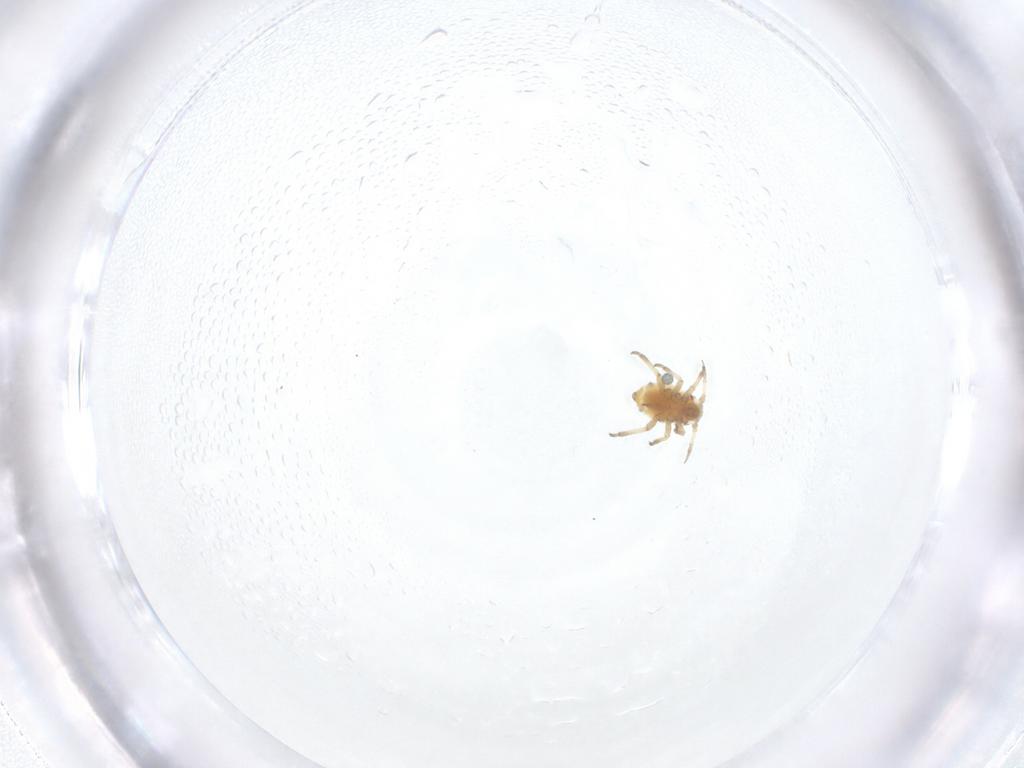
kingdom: Animalia
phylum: Arthropoda
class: Insecta
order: Hemiptera
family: Aphididae
